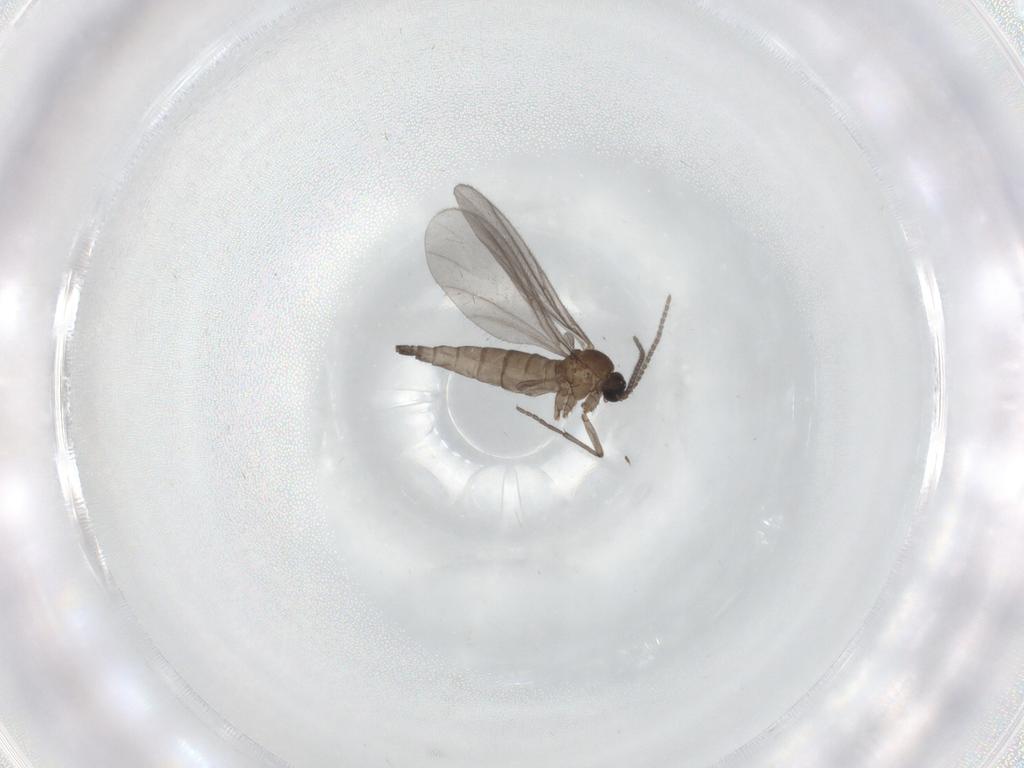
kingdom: Animalia
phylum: Arthropoda
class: Insecta
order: Diptera
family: Sciaridae
